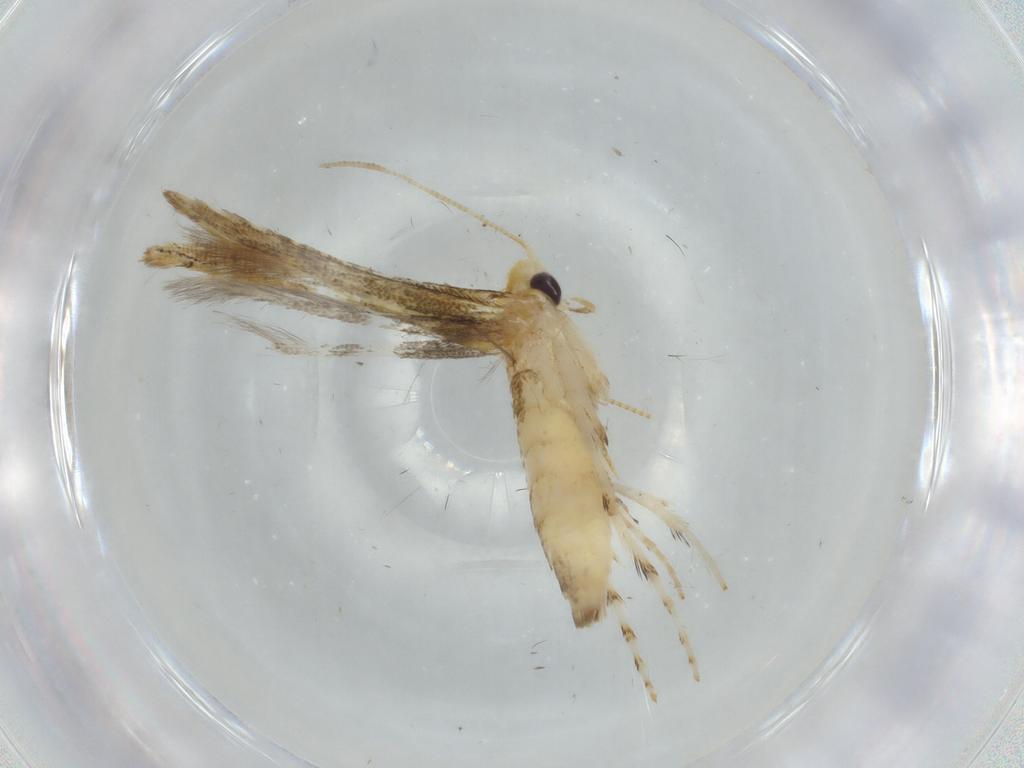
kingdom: Animalia
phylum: Arthropoda
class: Insecta
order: Lepidoptera
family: Gracillariidae
